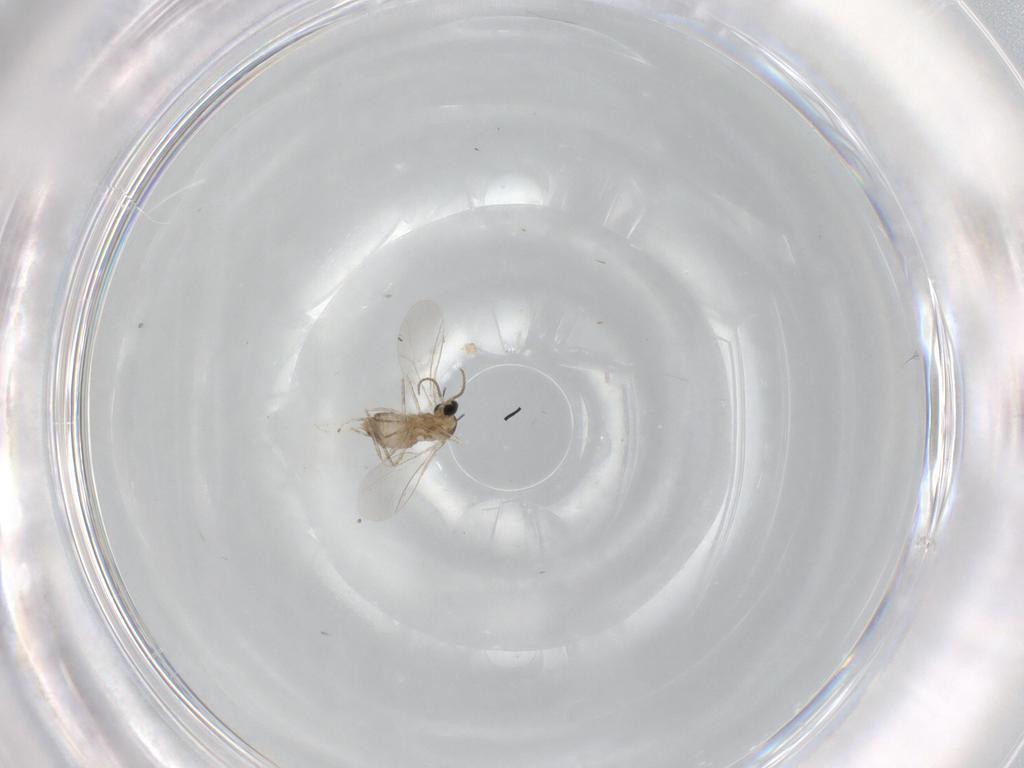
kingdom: Animalia
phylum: Arthropoda
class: Insecta
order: Diptera
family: Cecidomyiidae
